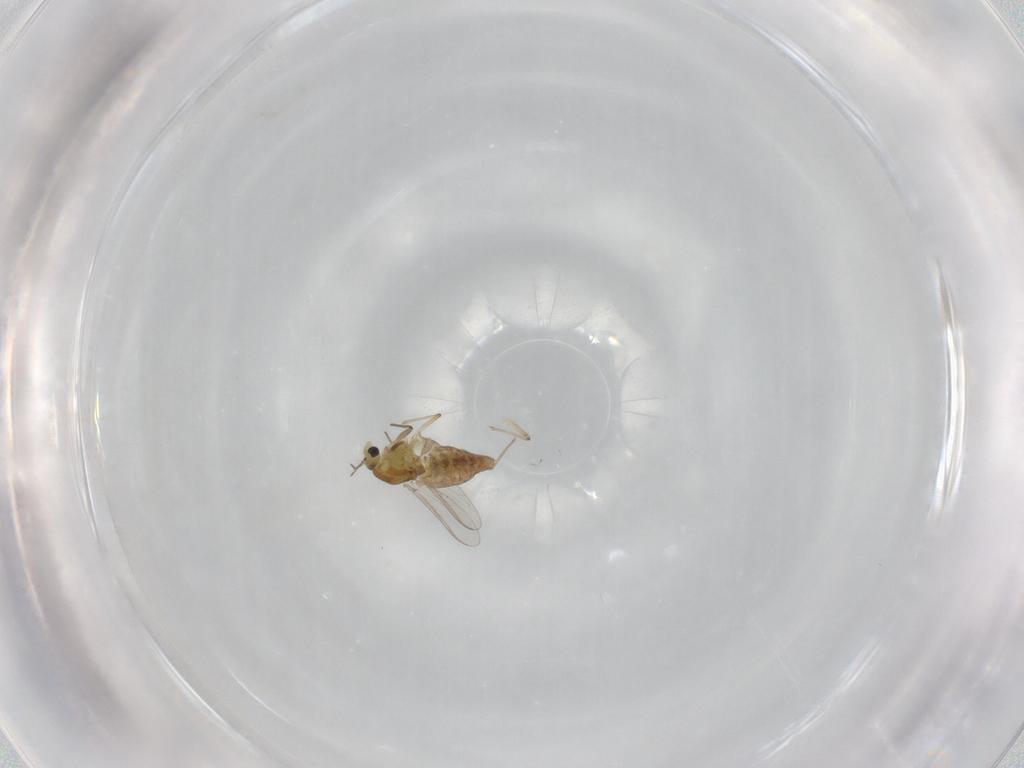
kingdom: Animalia
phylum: Arthropoda
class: Insecta
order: Diptera
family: Chironomidae
